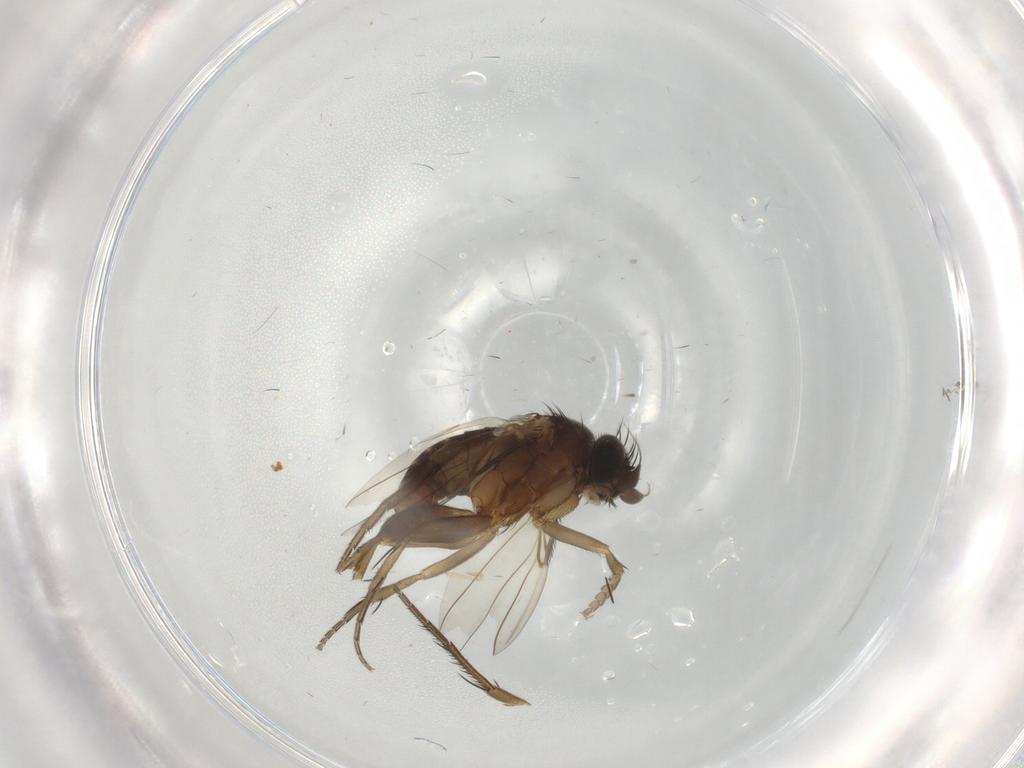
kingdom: Animalia
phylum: Arthropoda
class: Insecta
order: Diptera
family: Phoridae
